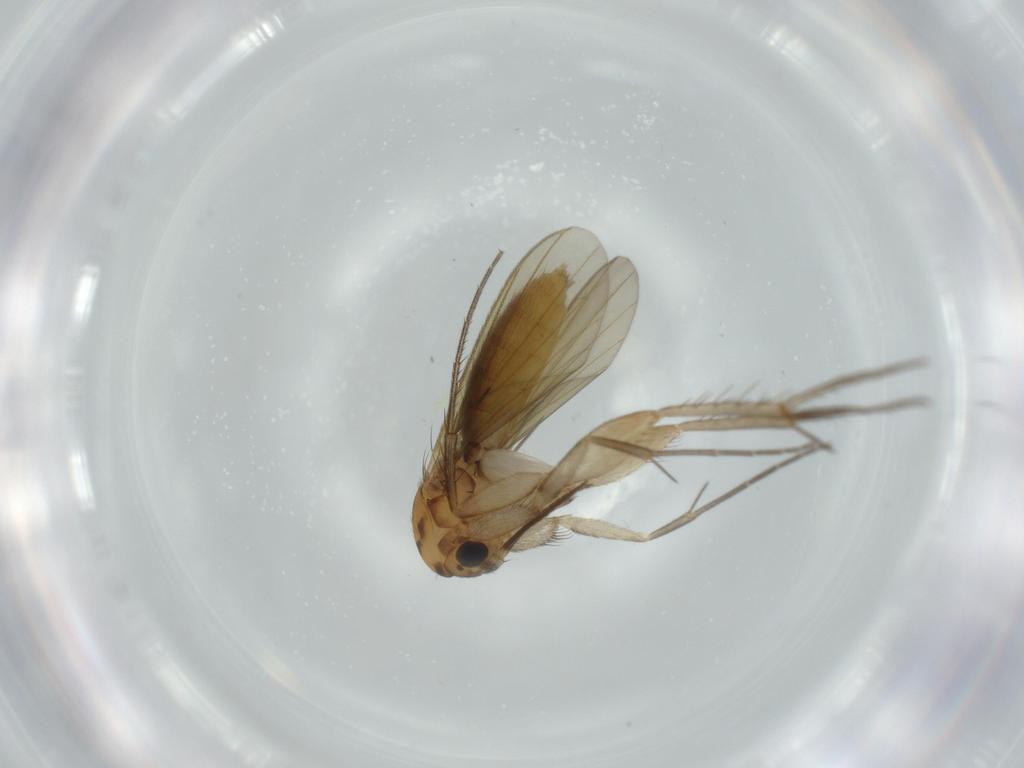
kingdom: Animalia
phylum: Arthropoda
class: Insecta
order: Diptera
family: Mycetophilidae
